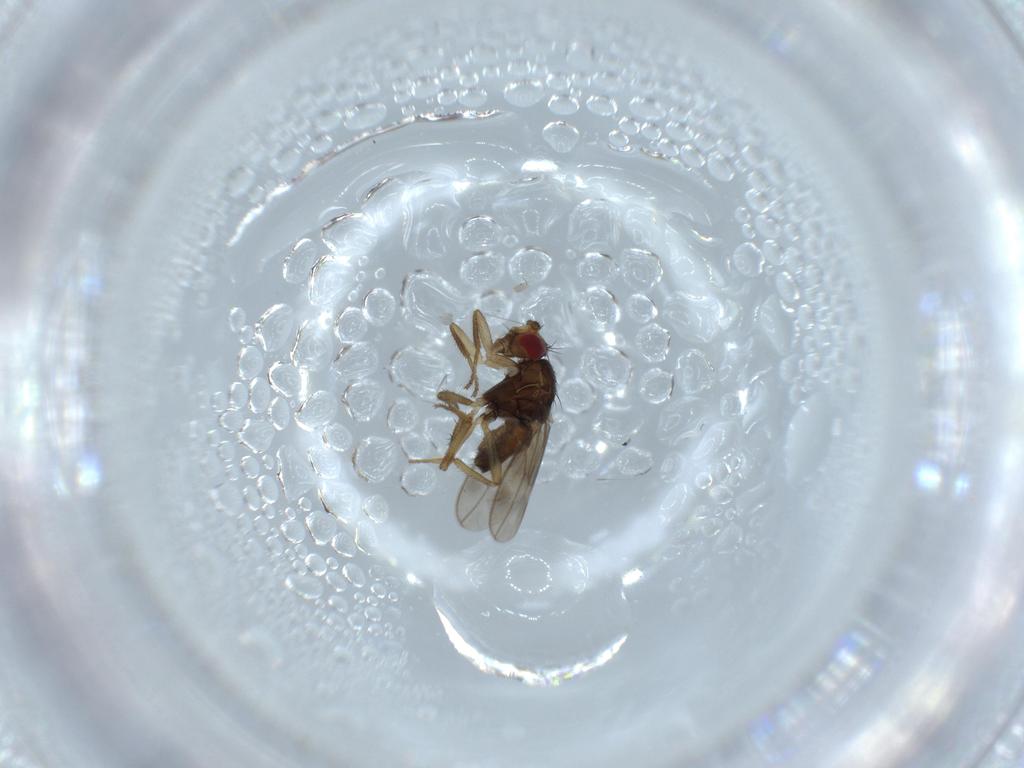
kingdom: Animalia
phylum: Arthropoda
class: Insecta
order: Diptera
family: Sphaeroceridae
